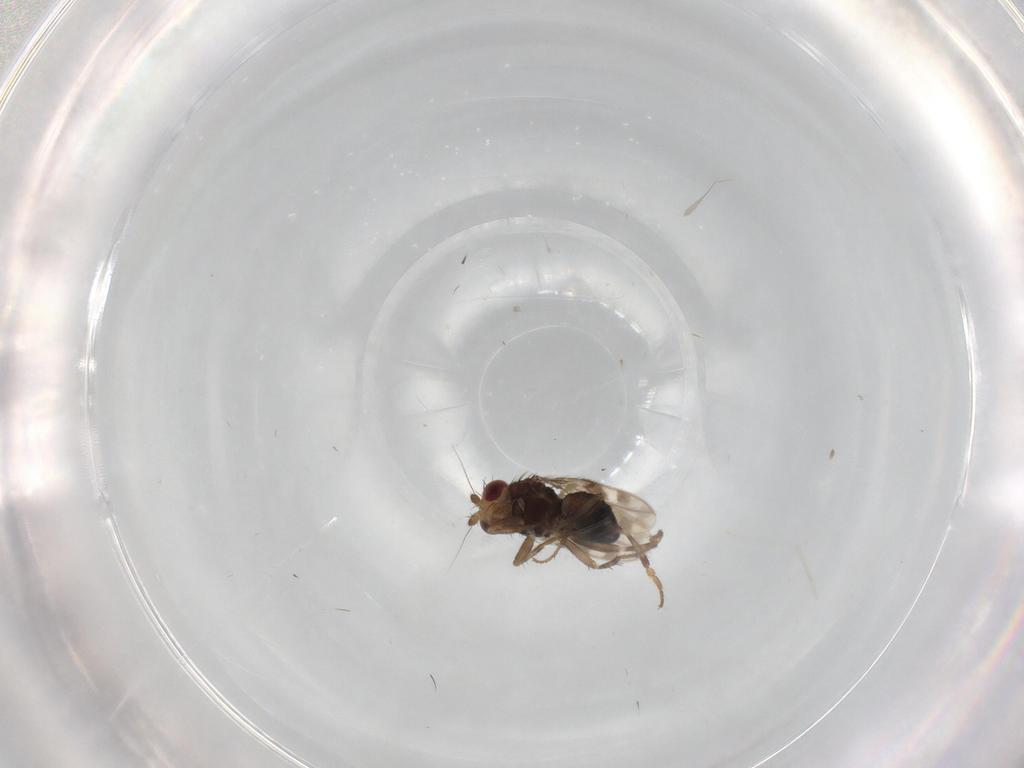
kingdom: Animalia
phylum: Arthropoda
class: Insecta
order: Diptera
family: Sphaeroceridae
